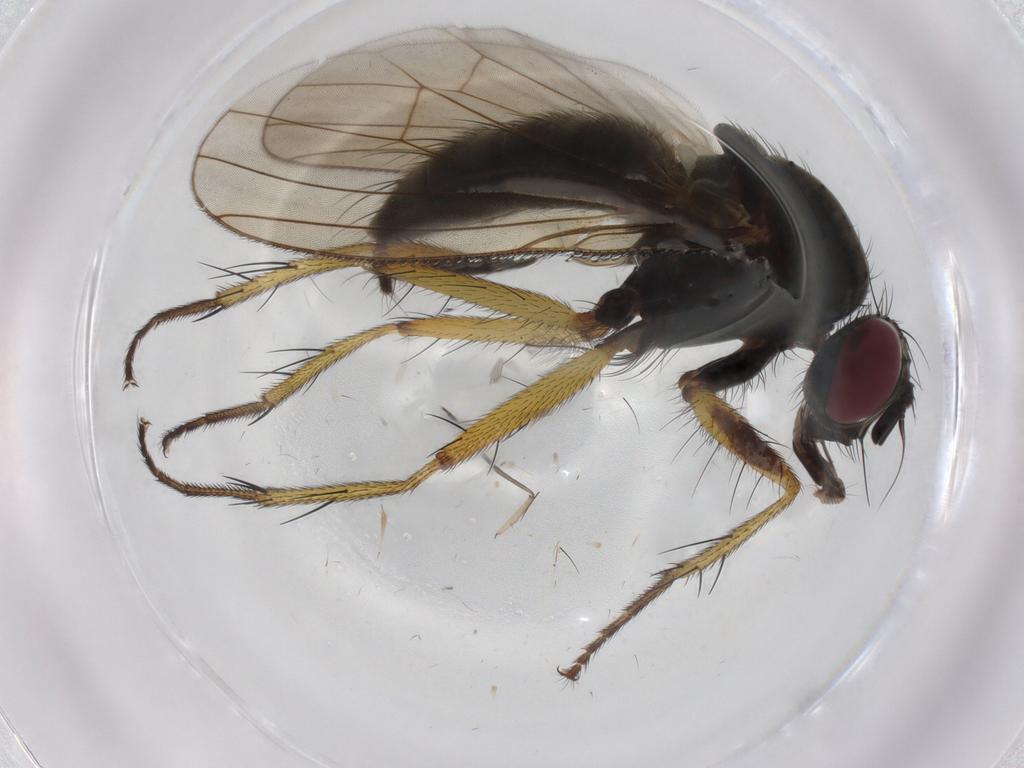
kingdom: Animalia
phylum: Arthropoda
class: Insecta
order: Diptera
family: Muscidae
